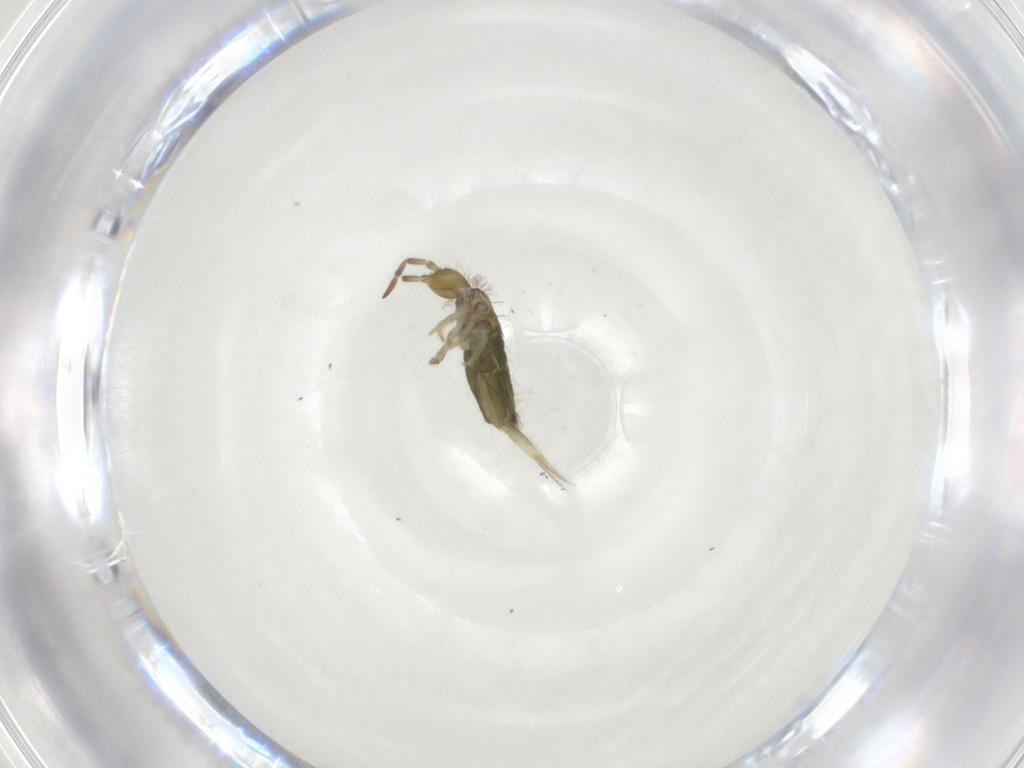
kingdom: Animalia
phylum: Arthropoda
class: Collembola
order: Entomobryomorpha
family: Entomobryidae
